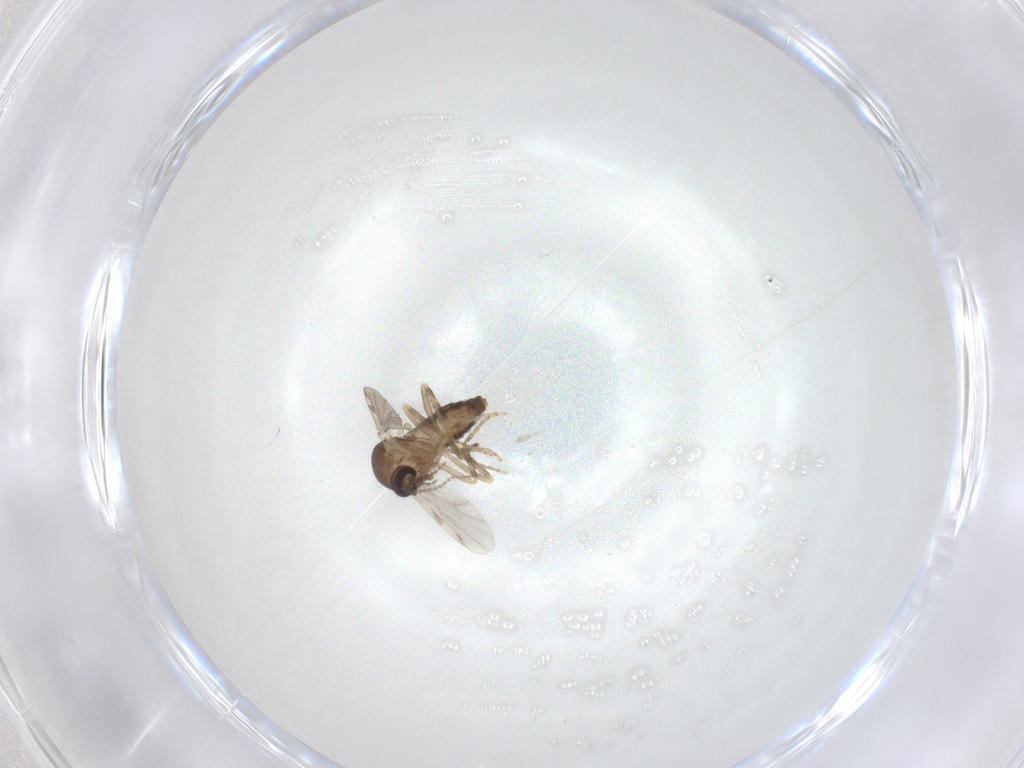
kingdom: Animalia
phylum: Arthropoda
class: Insecta
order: Diptera
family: Ceratopogonidae
